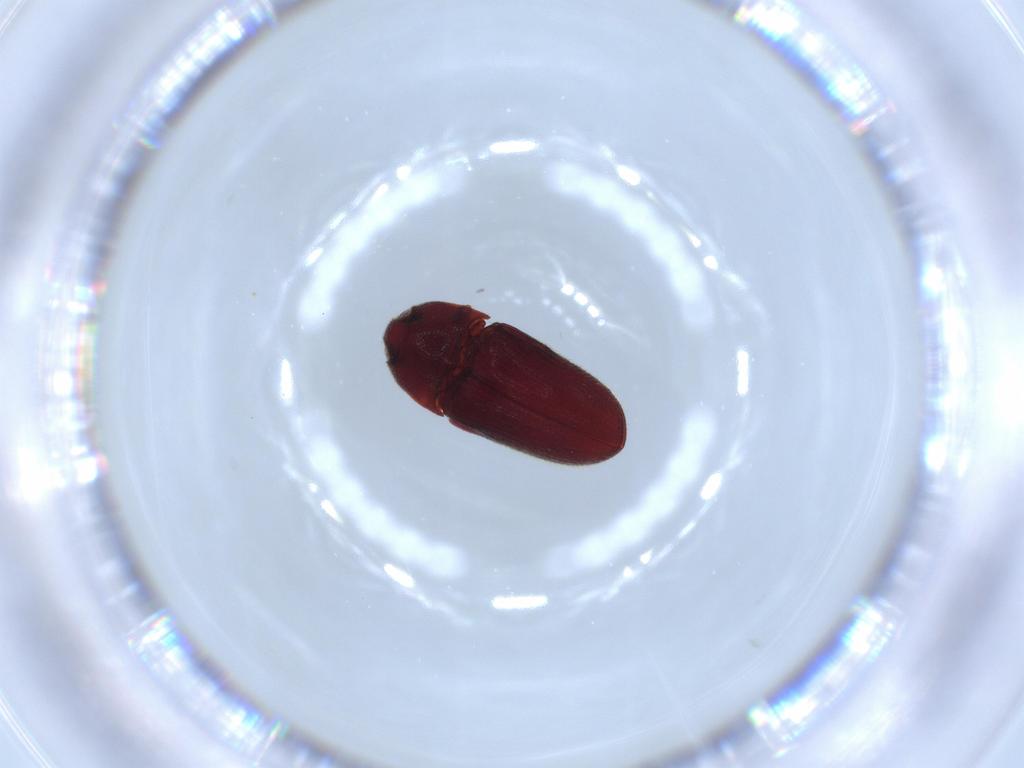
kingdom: Animalia
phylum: Arthropoda
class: Insecta
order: Coleoptera
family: Throscidae
